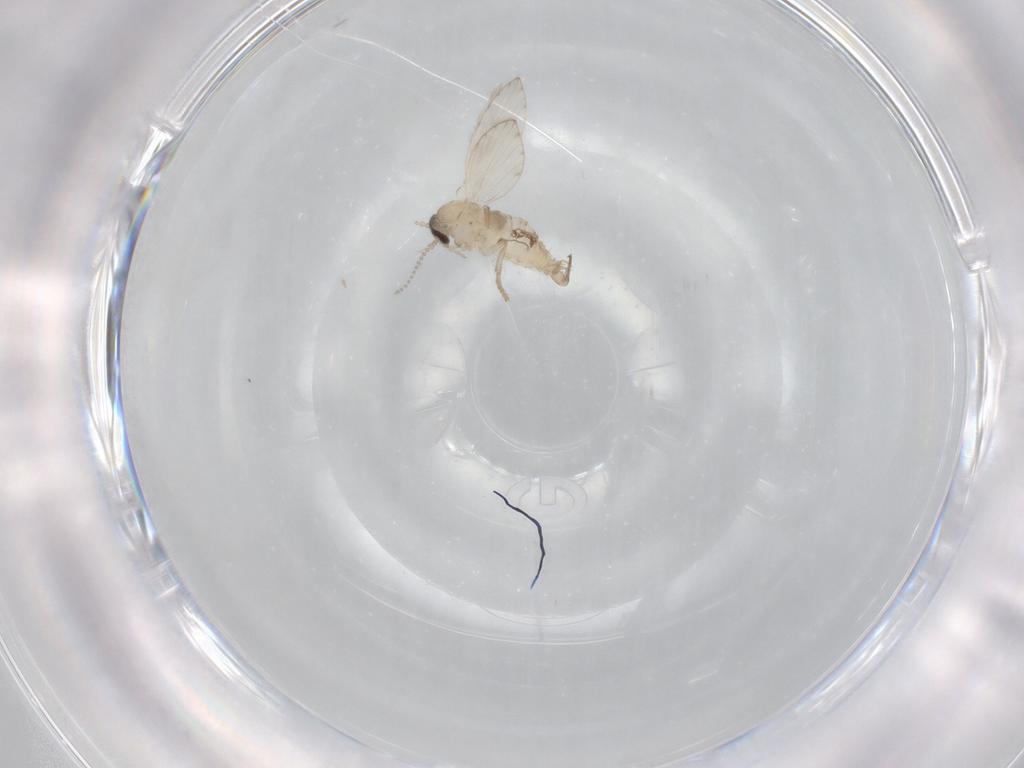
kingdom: Animalia
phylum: Arthropoda
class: Insecta
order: Diptera
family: Psychodidae
